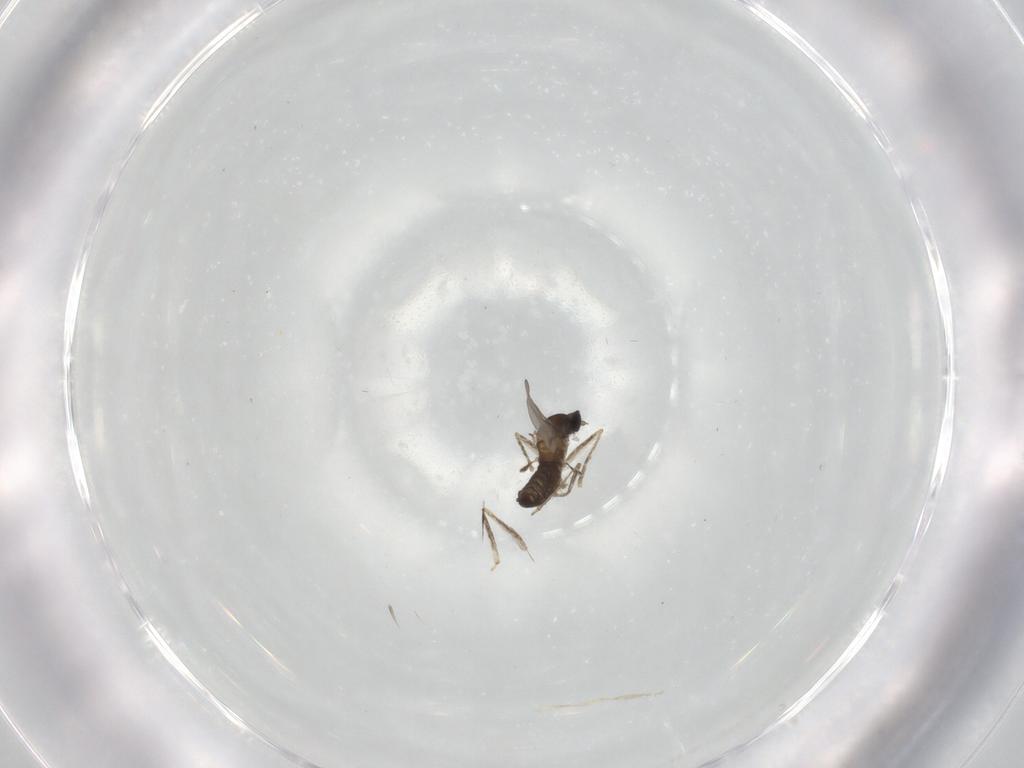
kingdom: Animalia
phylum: Arthropoda
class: Insecta
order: Diptera
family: Cecidomyiidae
